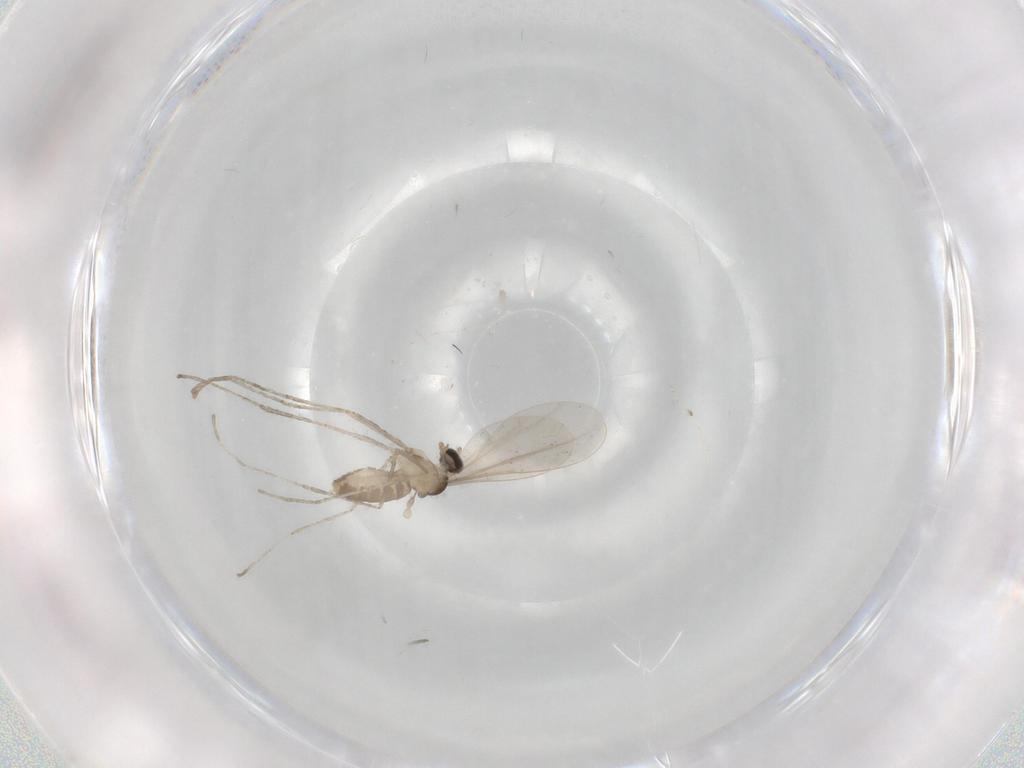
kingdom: Animalia
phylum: Arthropoda
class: Insecta
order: Diptera
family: Cecidomyiidae
